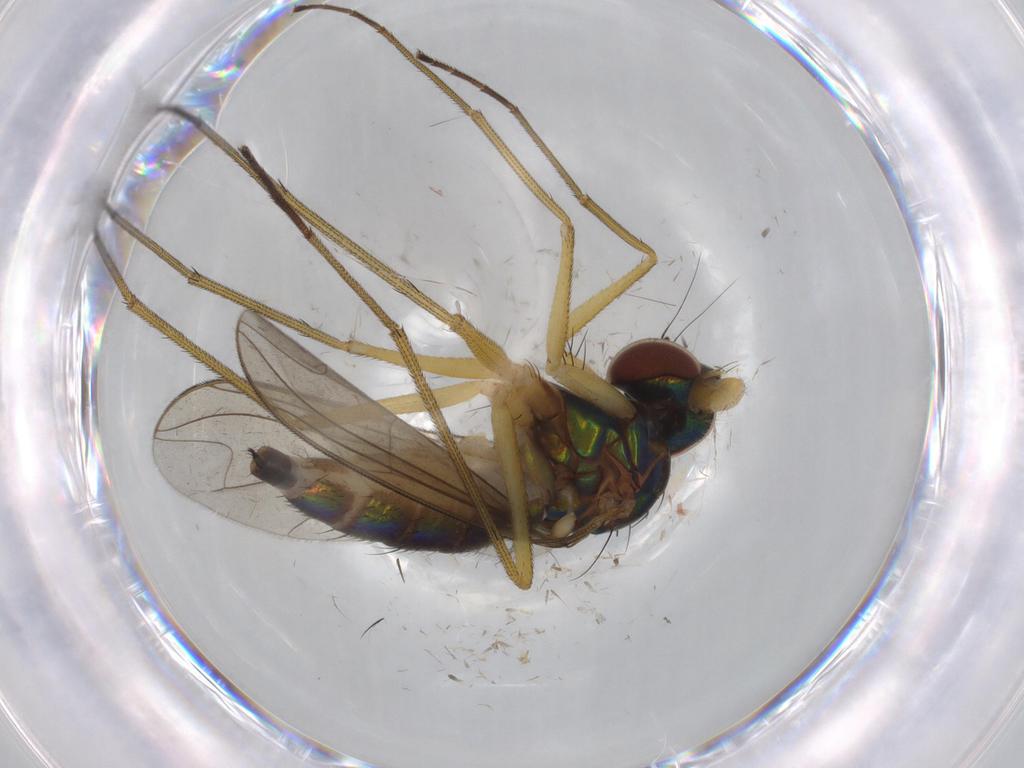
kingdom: Animalia
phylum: Arthropoda
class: Insecta
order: Diptera
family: Dolichopodidae
